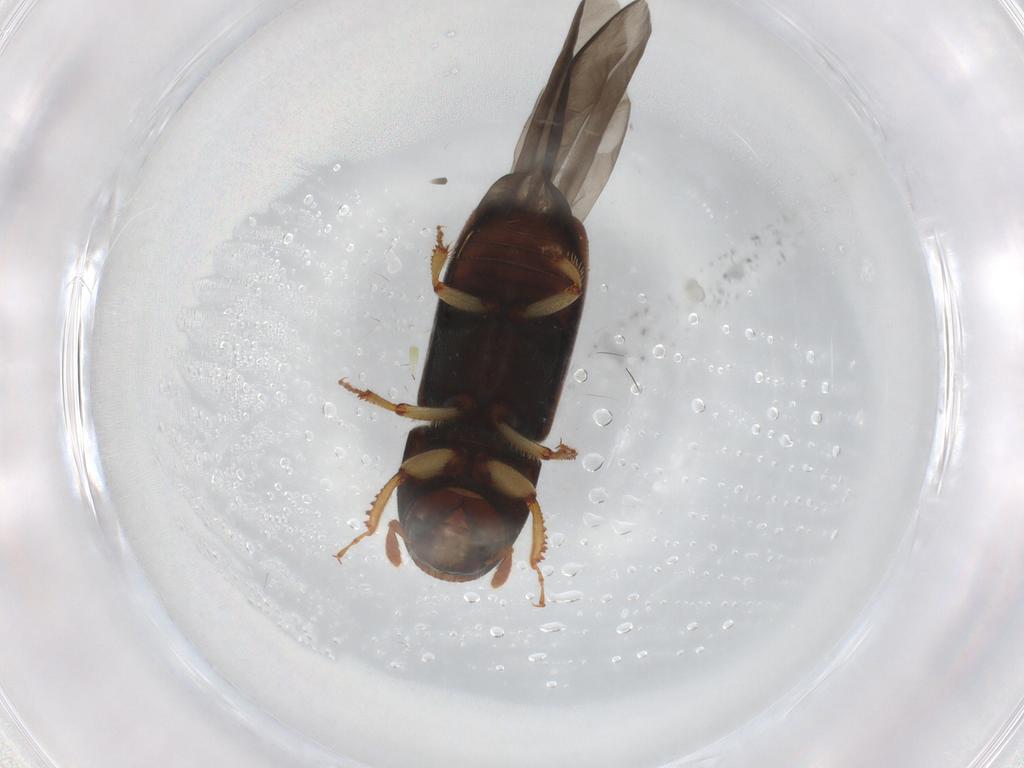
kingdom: Animalia
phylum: Arthropoda
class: Insecta
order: Coleoptera
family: Curculionidae
